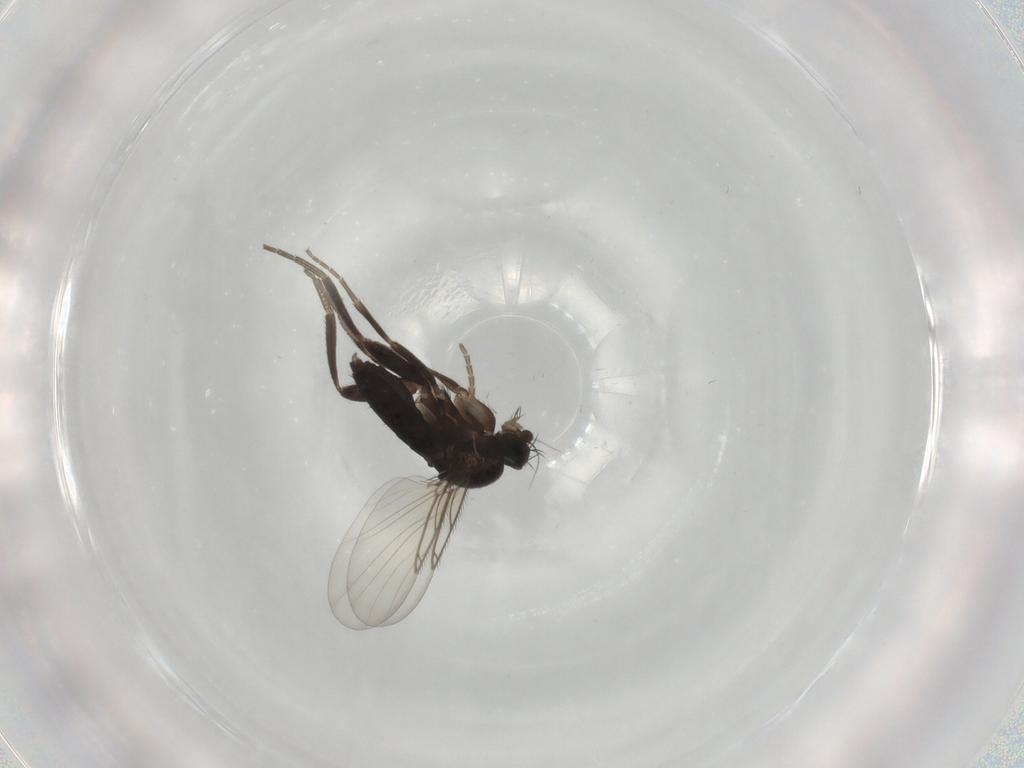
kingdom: Animalia
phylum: Arthropoda
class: Insecta
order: Diptera
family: Phoridae
